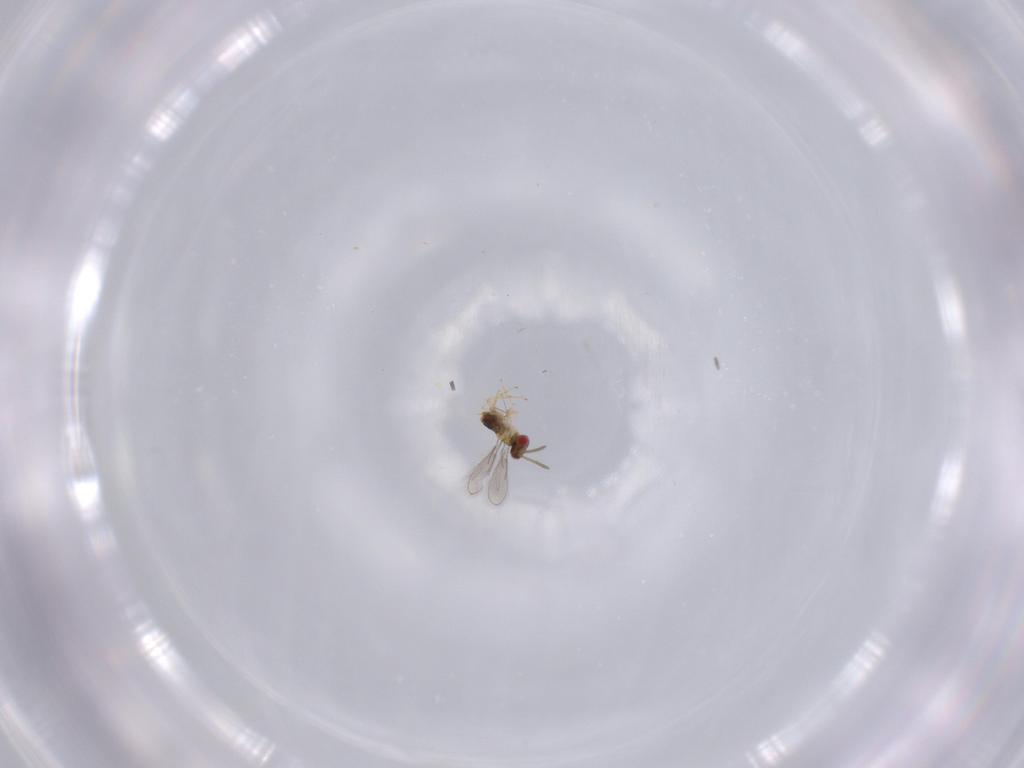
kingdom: Animalia
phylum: Arthropoda
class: Insecta
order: Hymenoptera
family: Aphelinidae
